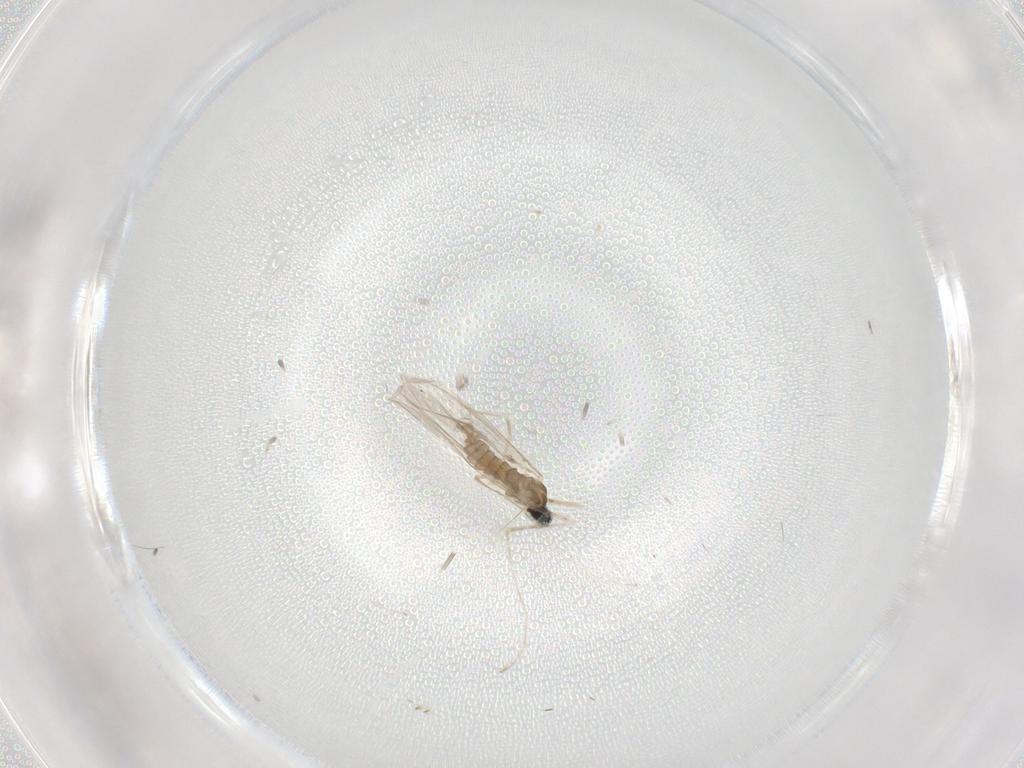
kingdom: Animalia
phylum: Arthropoda
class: Insecta
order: Diptera
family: Cecidomyiidae
